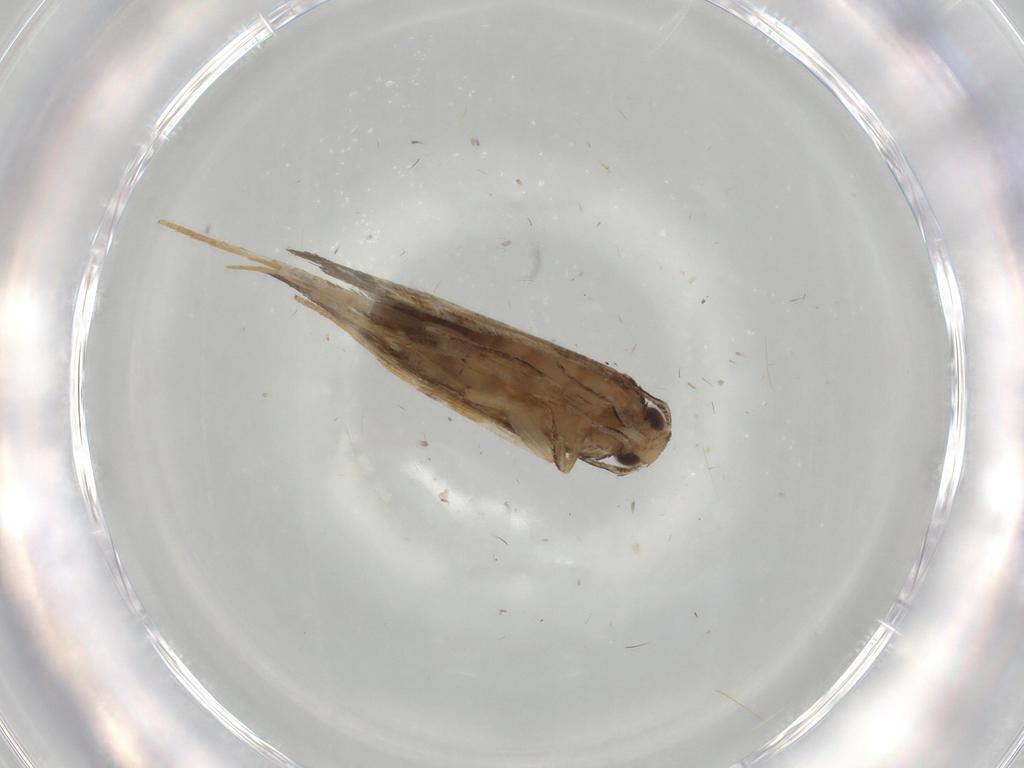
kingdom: Animalia
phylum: Arthropoda
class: Insecta
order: Lepidoptera
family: Cosmopterigidae
